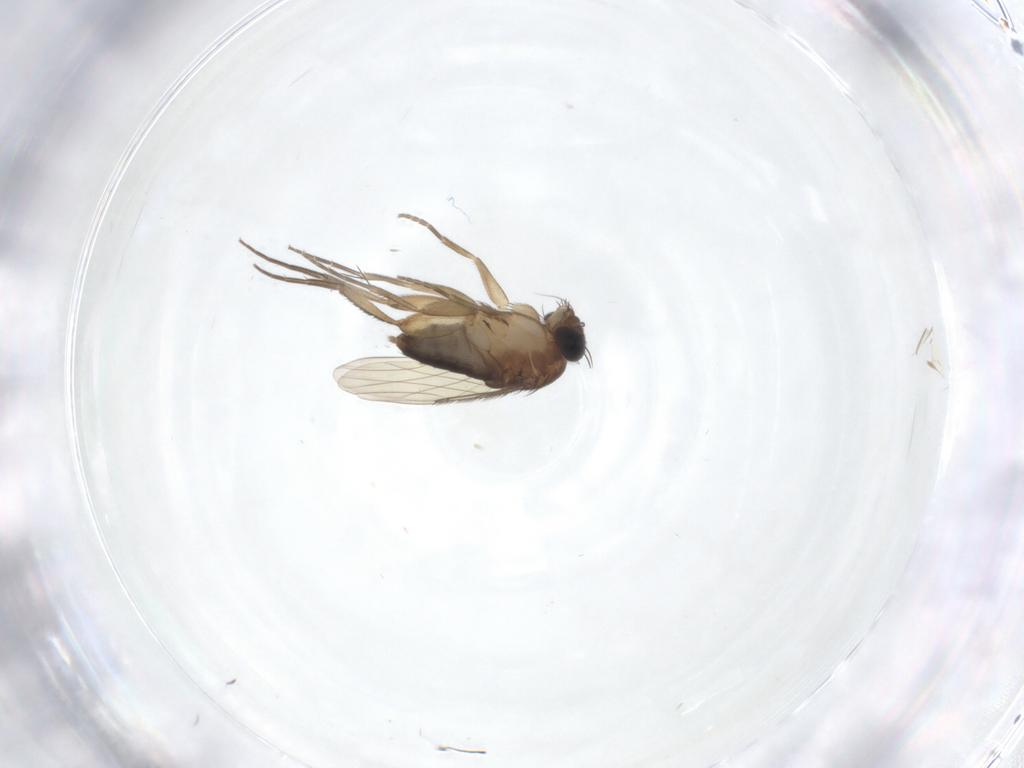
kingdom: Animalia
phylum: Arthropoda
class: Insecta
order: Diptera
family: Phoridae
